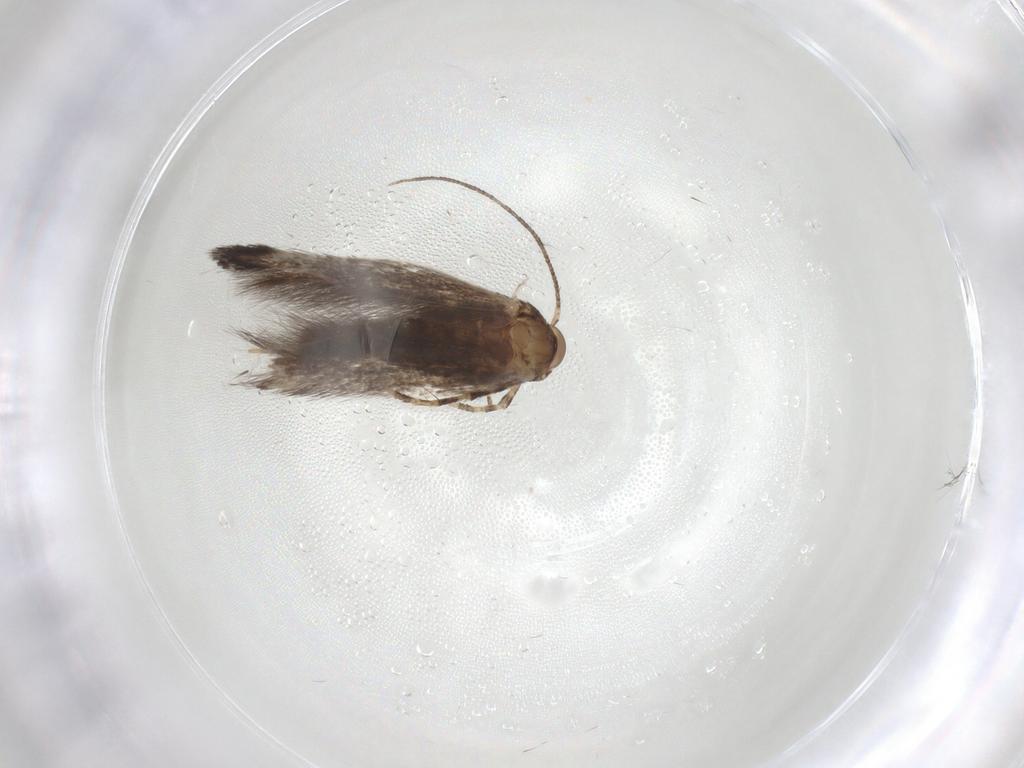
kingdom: Animalia
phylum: Arthropoda
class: Insecta
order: Lepidoptera
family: Elachistidae
